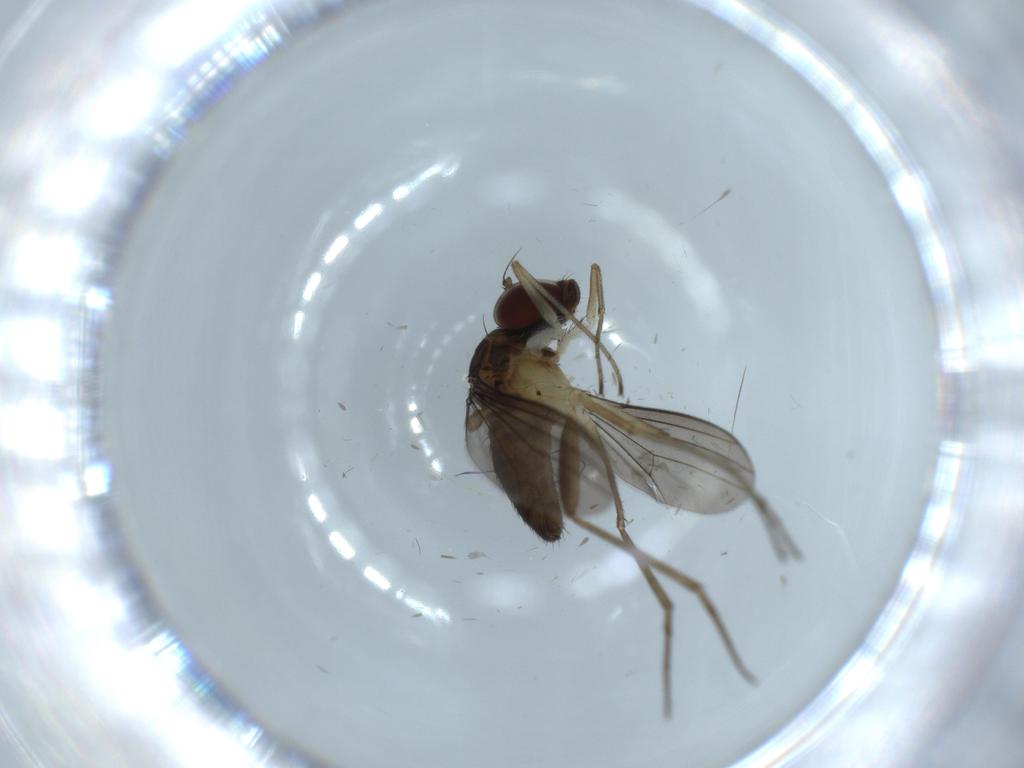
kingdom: Animalia
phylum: Arthropoda
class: Insecta
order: Diptera
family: Dolichopodidae
